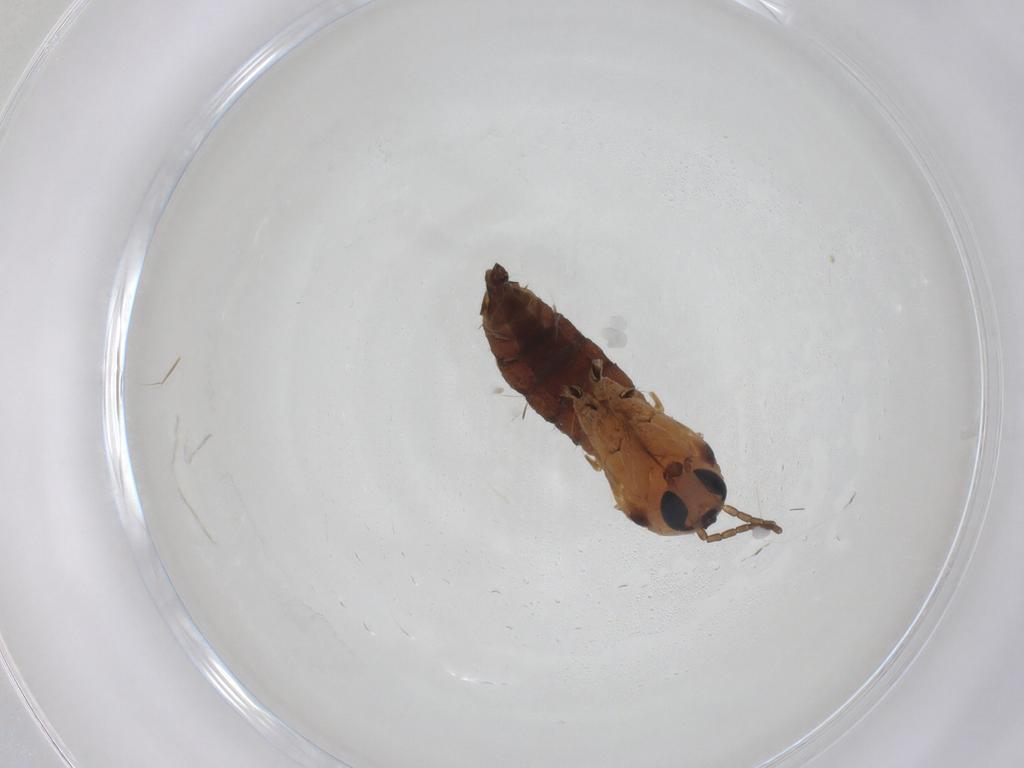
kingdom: Animalia
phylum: Arthropoda
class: Insecta
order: Diptera
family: Sciaridae
